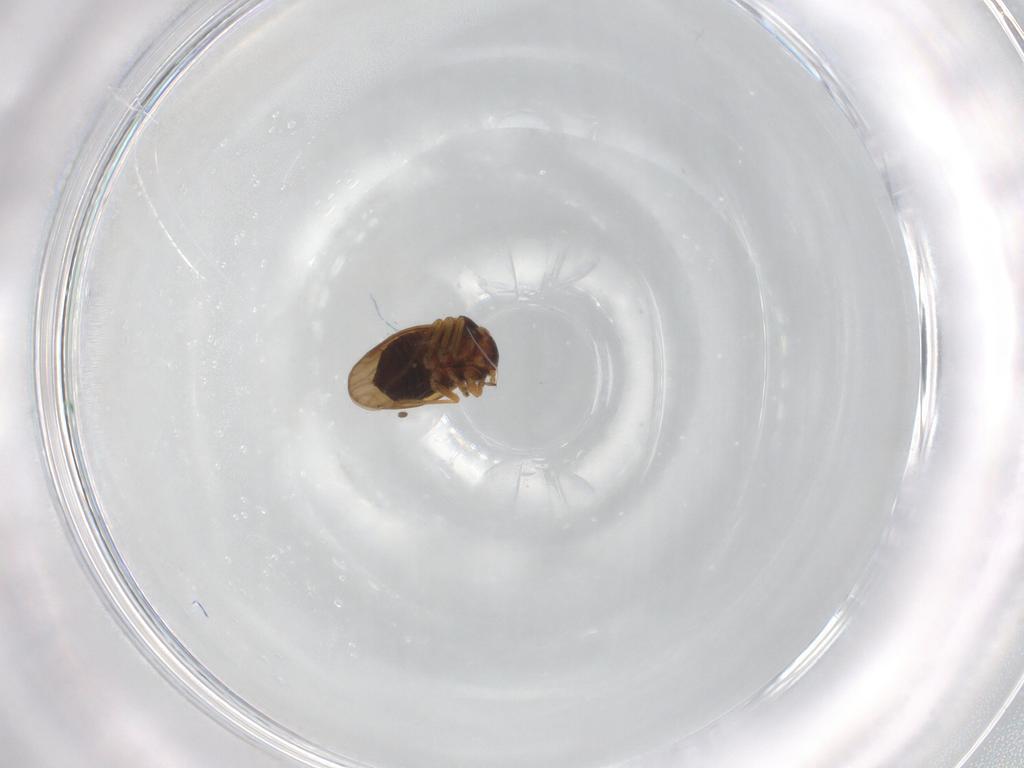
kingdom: Animalia
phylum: Arthropoda
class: Insecta
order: Hemiptera
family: Schizopteridae
